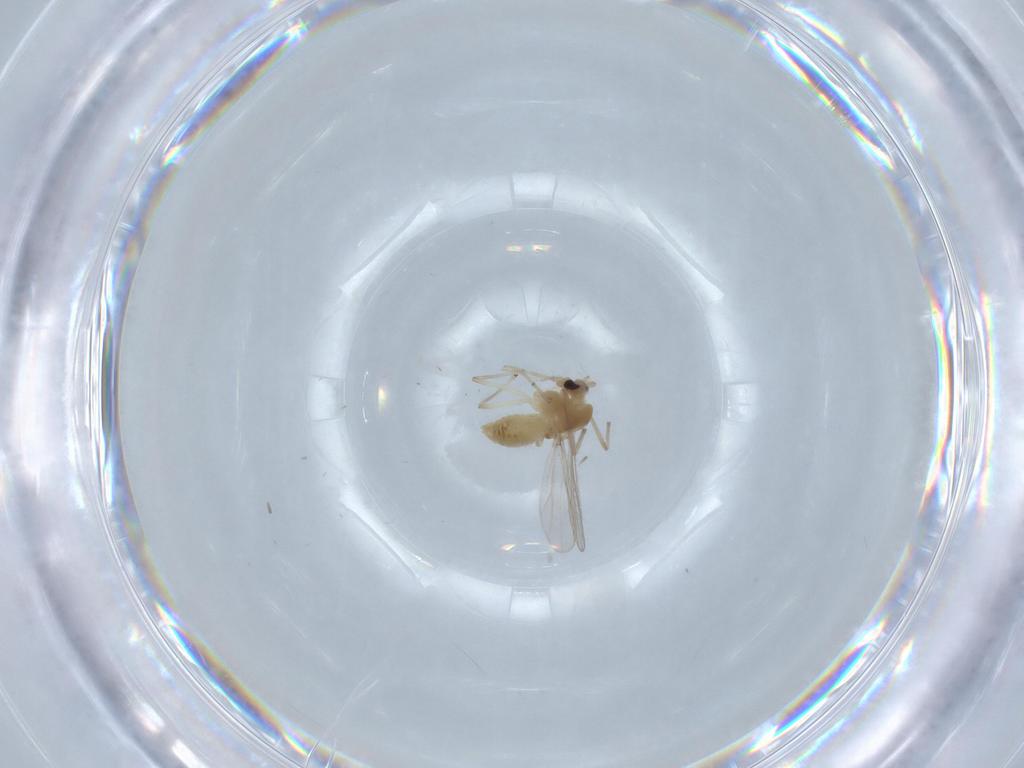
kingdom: Animalia
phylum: Arthropoda
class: Insecta
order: Diptera
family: Chironomidae
